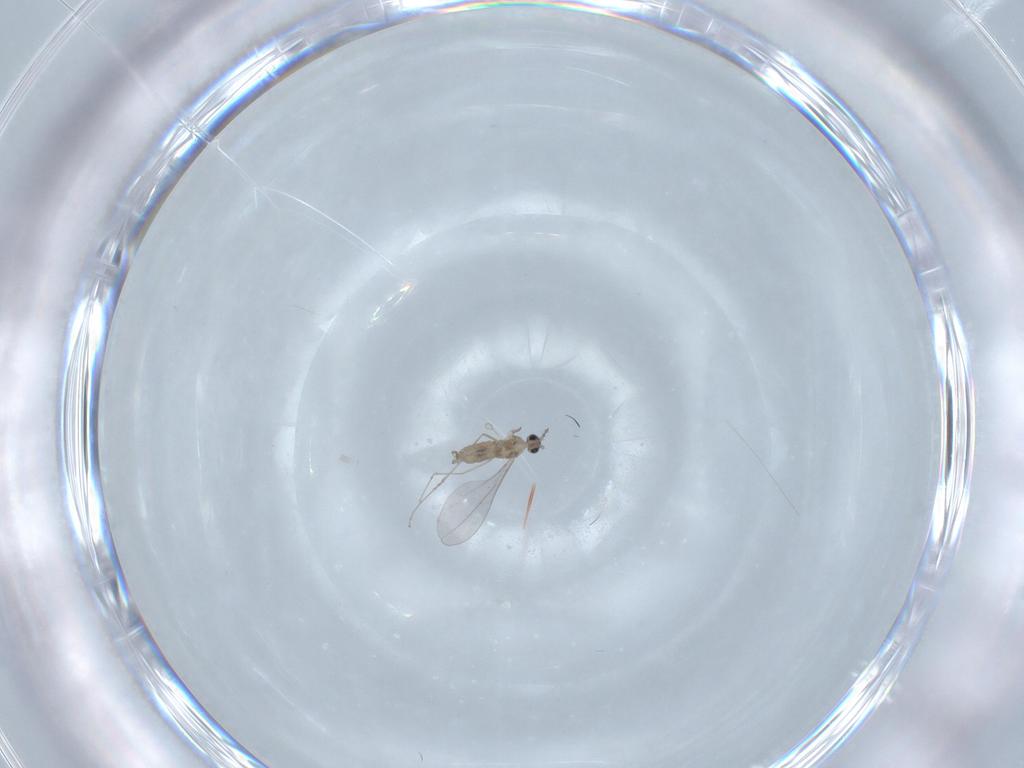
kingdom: Animalia
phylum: Arthropoda
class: Insecta
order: Diptera
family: Cecidomyiidae
